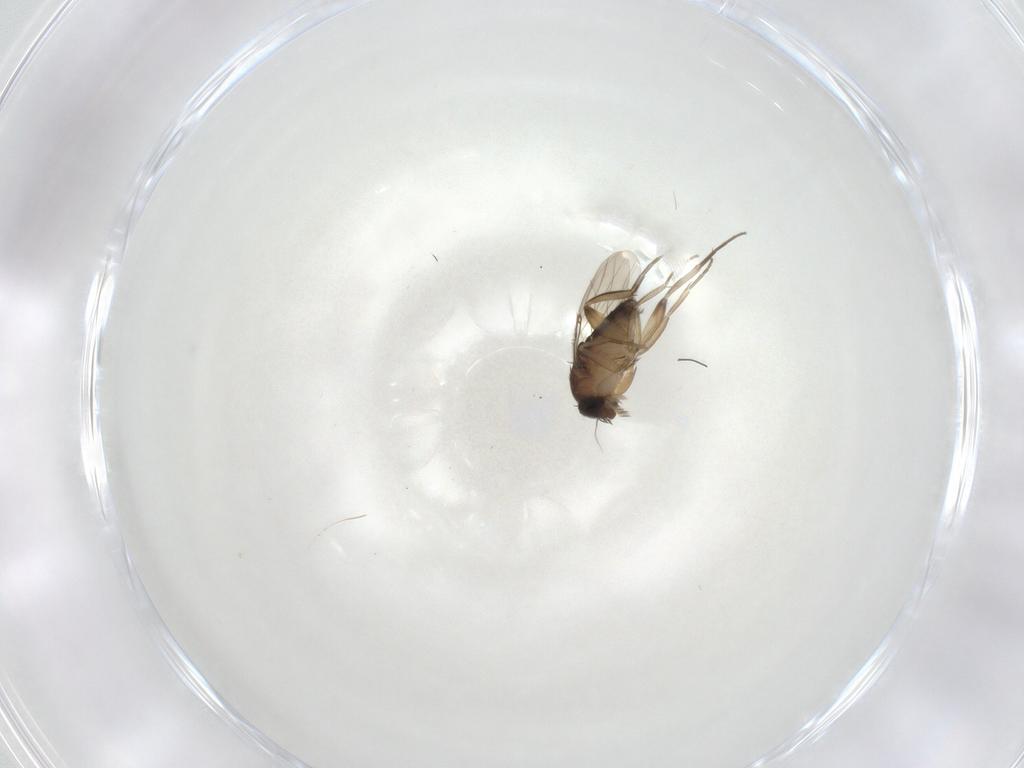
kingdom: Animalia
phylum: Arthropoda
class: Insecta
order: Diptera
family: Phoridae
